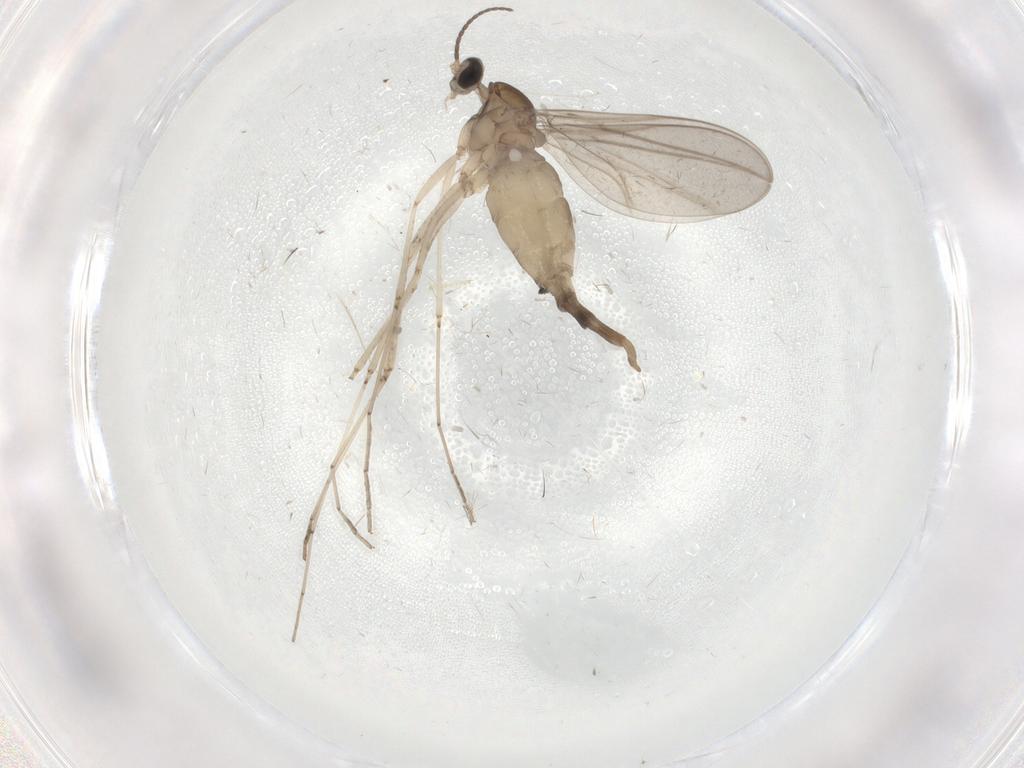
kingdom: Animalia
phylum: Arthropoda
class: Insecta
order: Diptera
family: Cecidomyiidae
